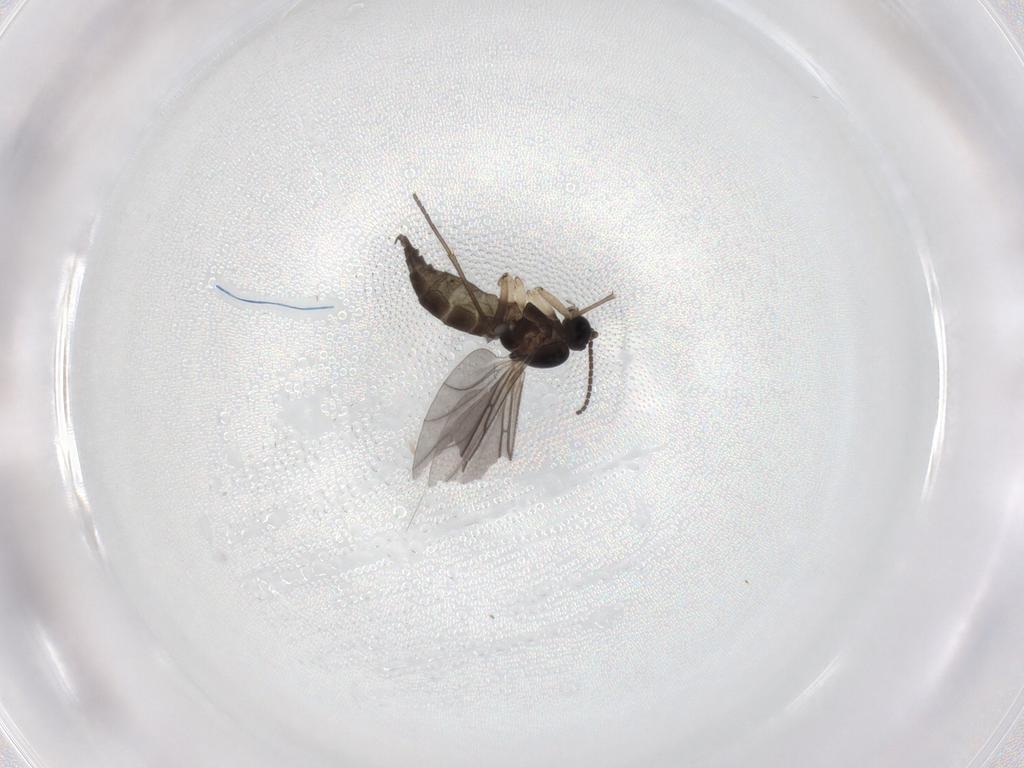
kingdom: Animalia
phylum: Arthropoda
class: Insecta
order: Diptera
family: Sciaridae
